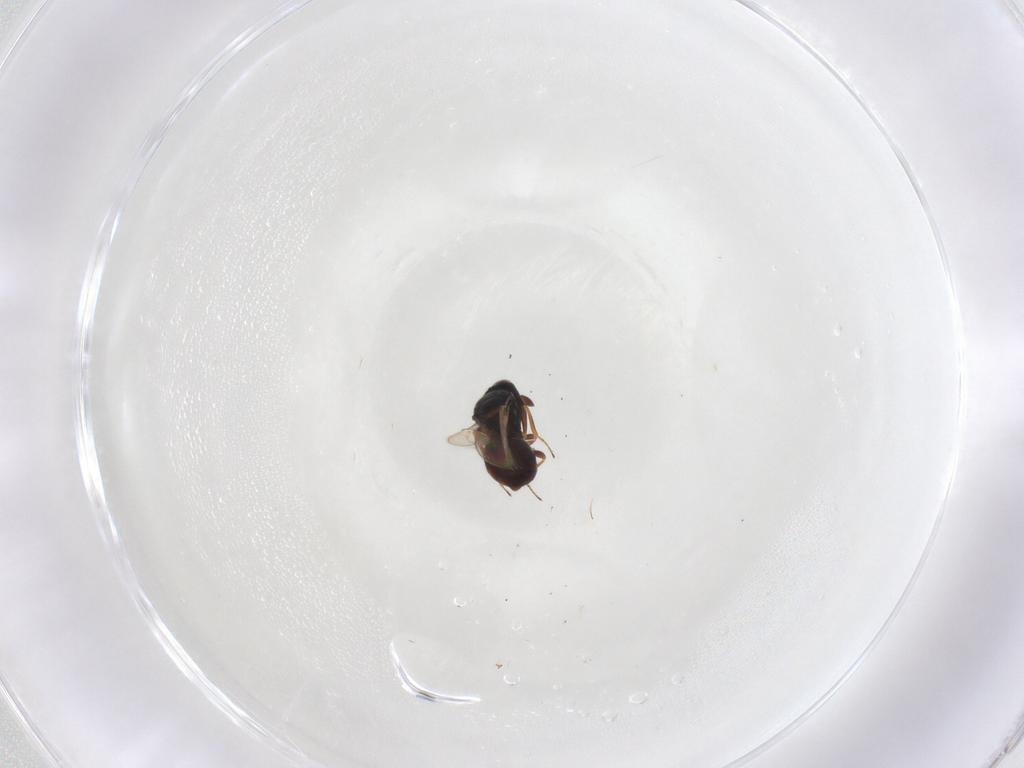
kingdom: Animalia
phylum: Arthropoda
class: Insecta
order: Hymenoptera
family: Scelionidae
